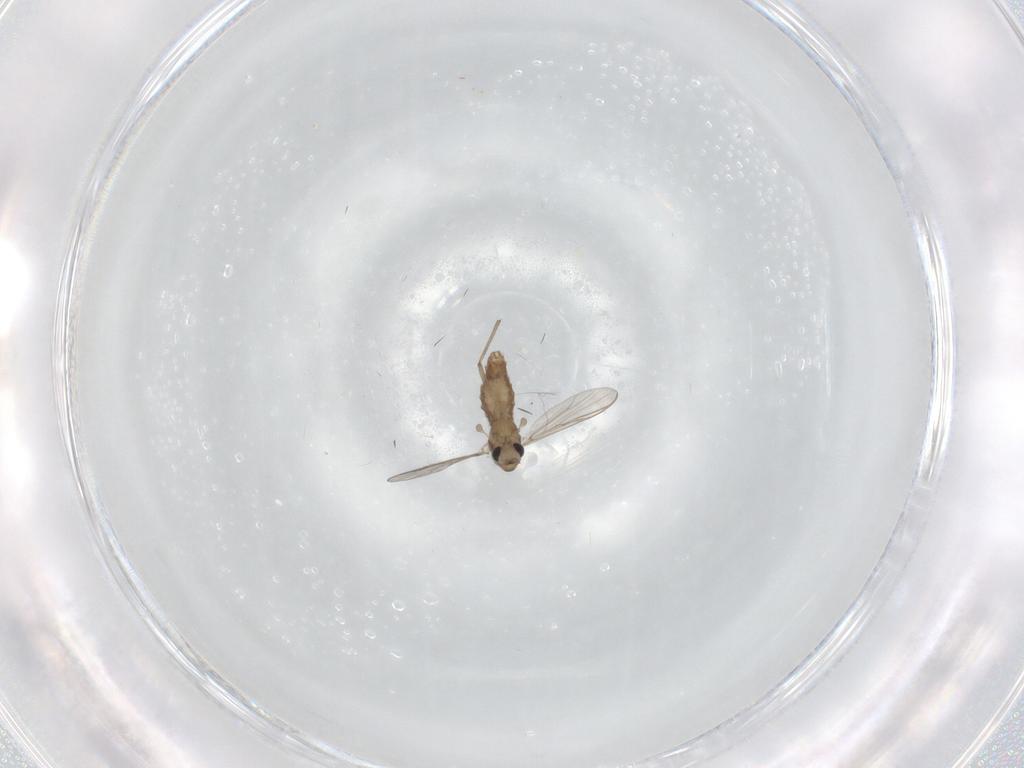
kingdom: Animalia
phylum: Arthropoda
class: Insecta
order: Diptera
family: Chironomidae
